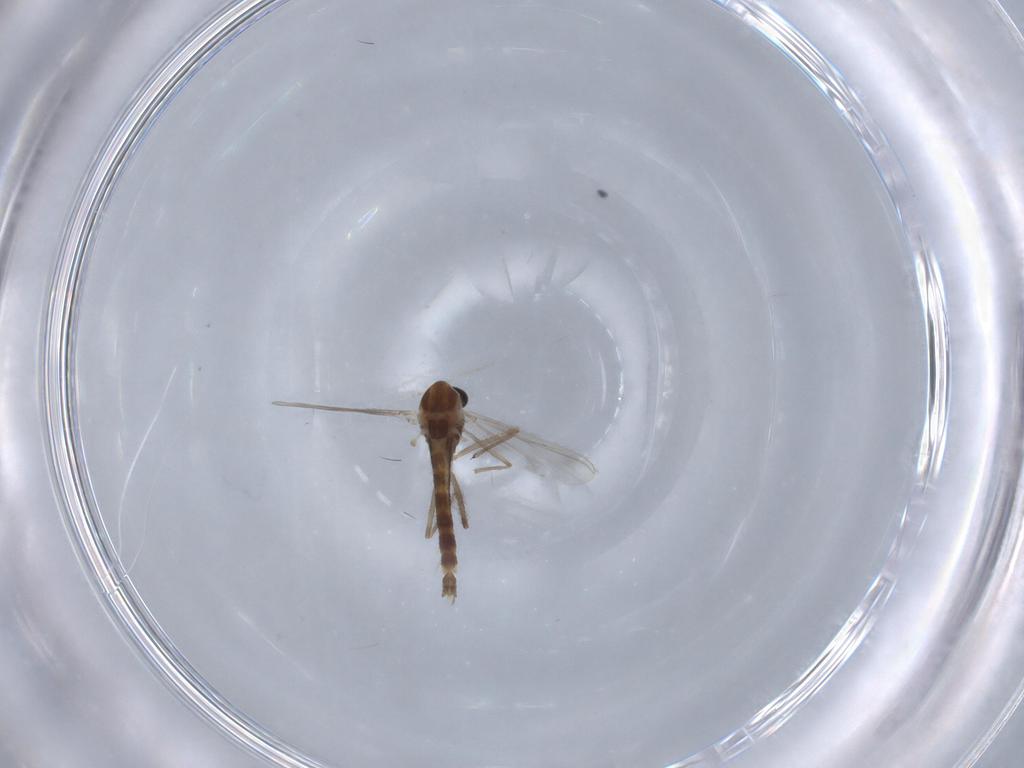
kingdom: Animalia
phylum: Arthropoda
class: Insecta
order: Diptera
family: Chironomidae
